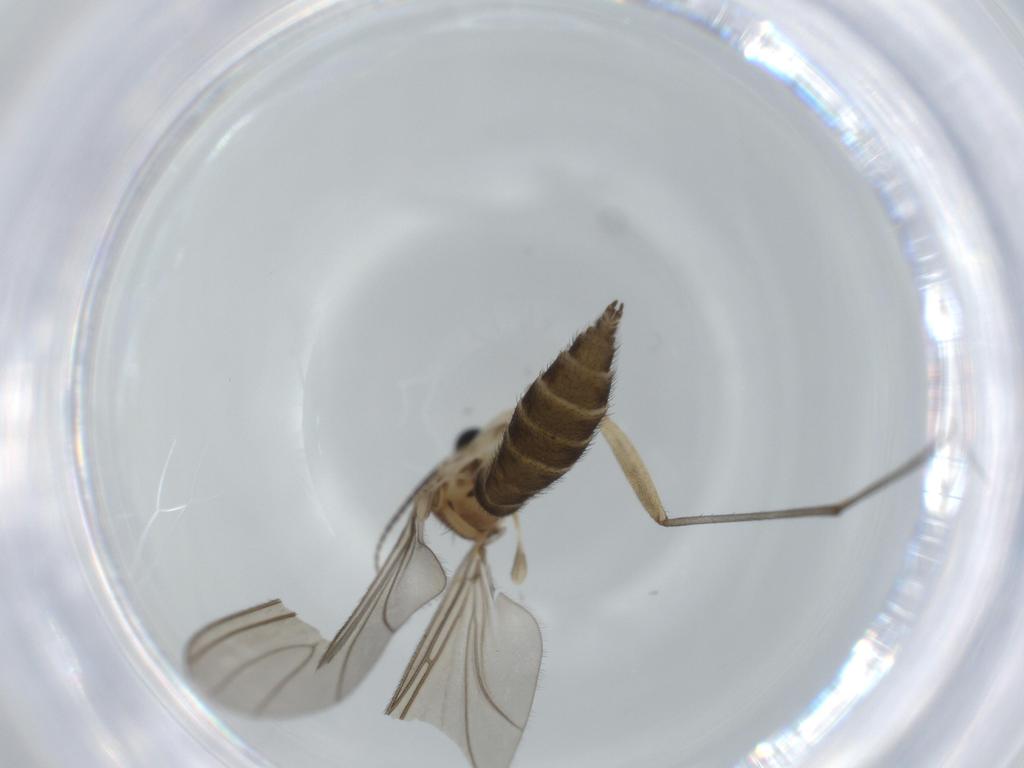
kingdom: Animalia
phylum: Arthropoda
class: Insecta
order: Diptera
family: Sciaridae
